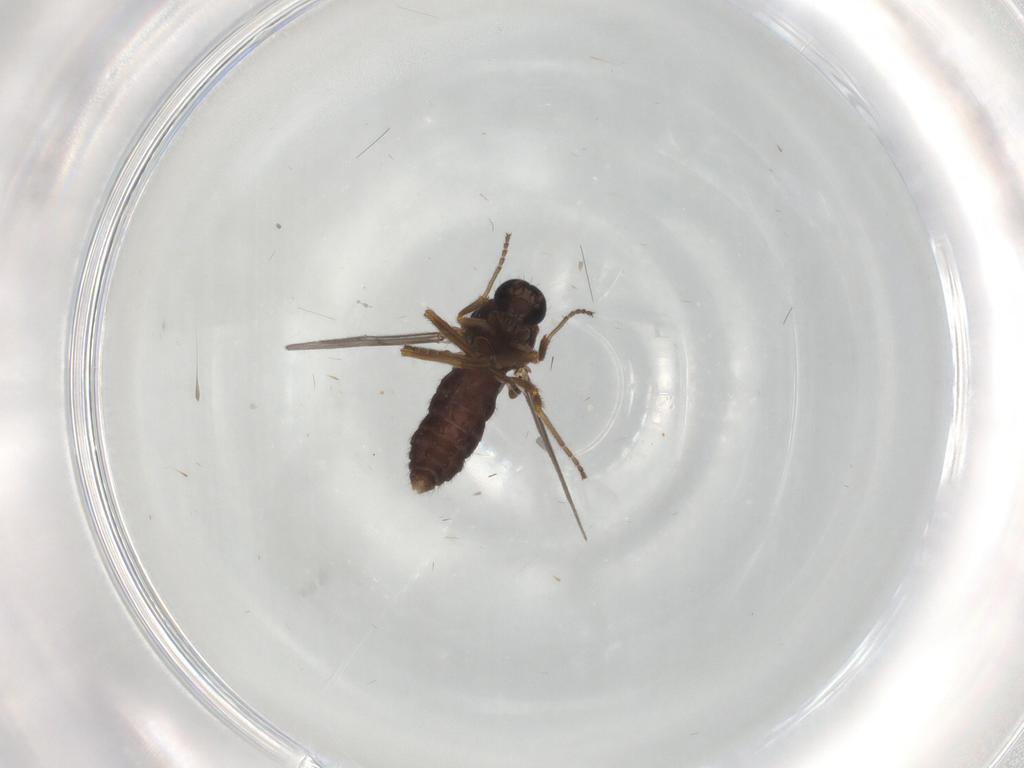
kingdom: Animalia
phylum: Arthropoda
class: Insecta
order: Diptera
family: Ceratopogonidae
